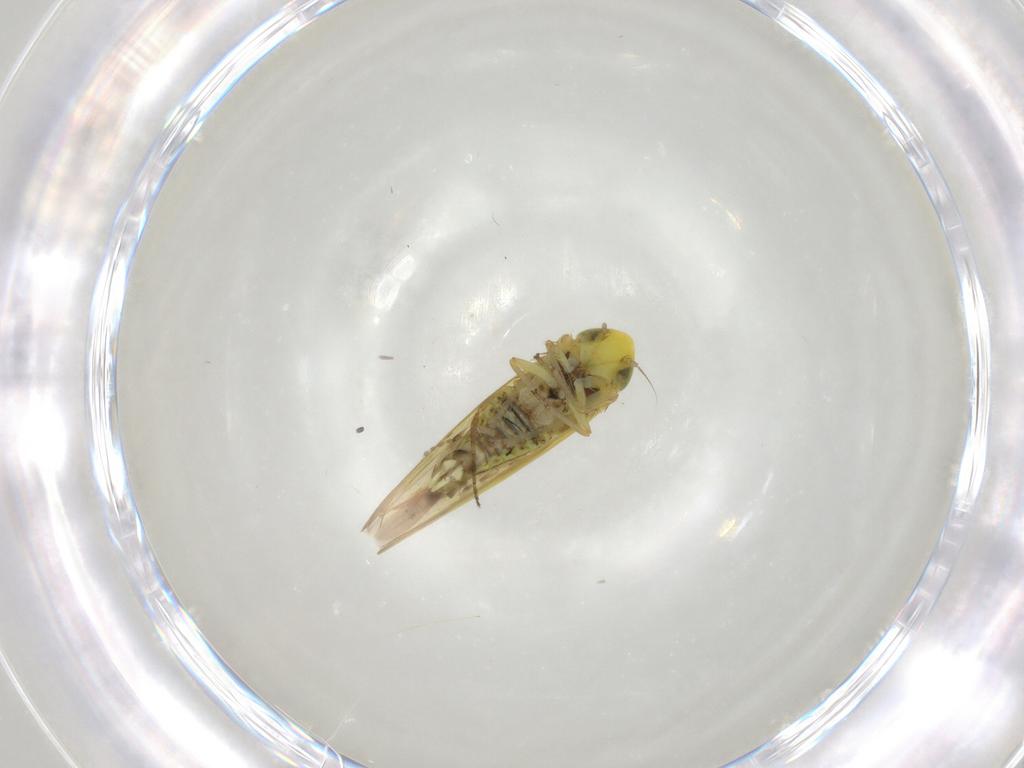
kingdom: Animalia
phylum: Arthropoda
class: Insecta
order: Hemiptera
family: Cicadellidae
